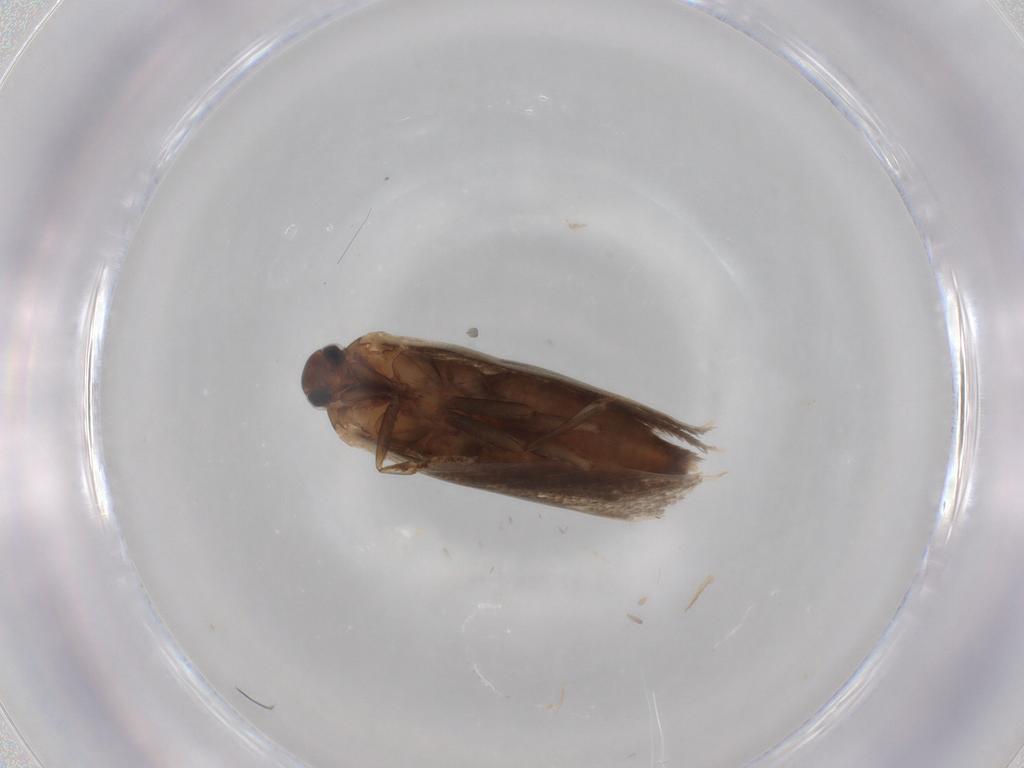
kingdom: Animalia
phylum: Arthropoda
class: Insecta
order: Lepidoptera
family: Elachistidae
